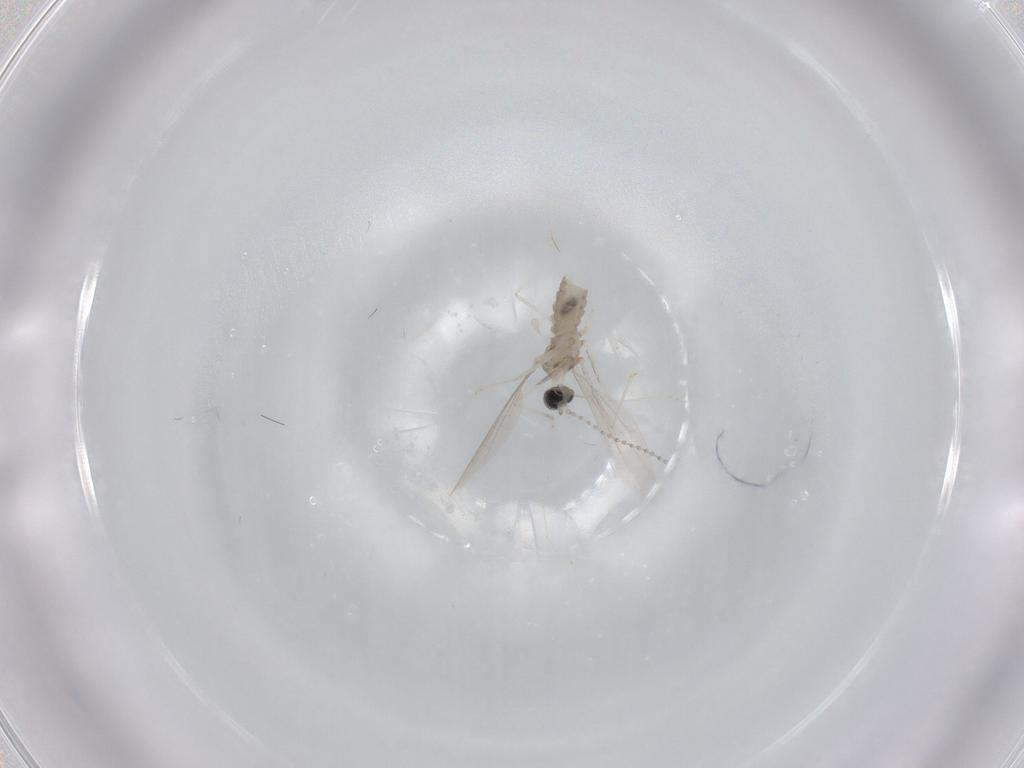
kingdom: Animalia
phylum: Arthropoda
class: Insecta
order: Diptera
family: Cecidomyiidae
